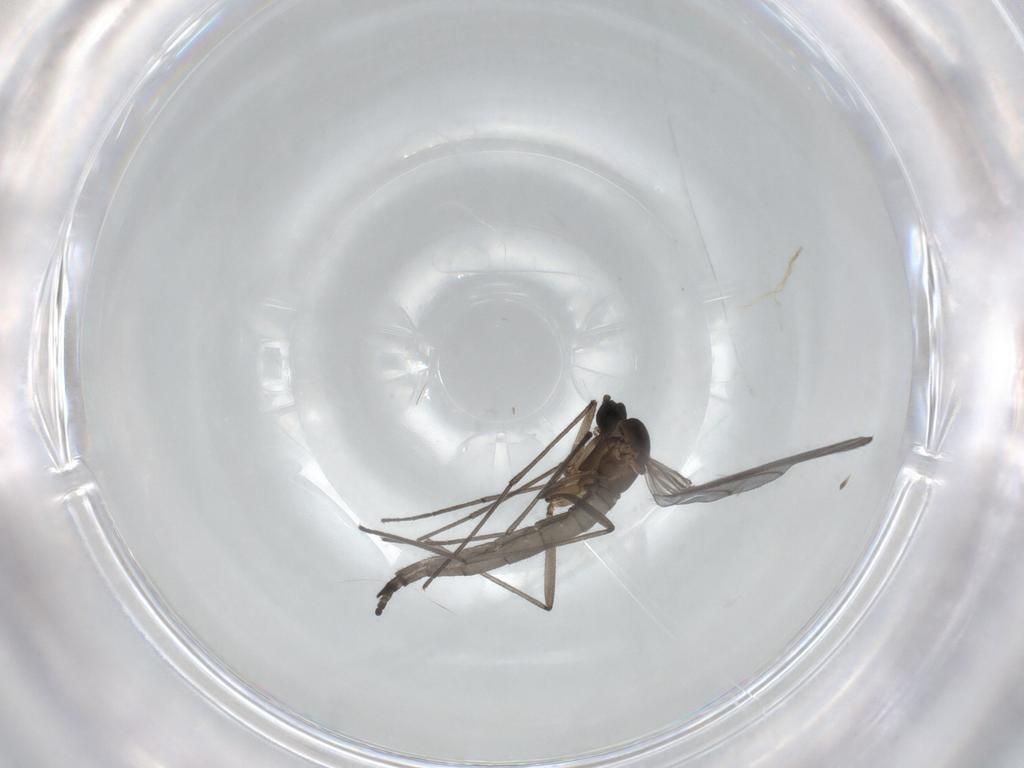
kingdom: Animalia
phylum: Arthropoda
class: Insecta
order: Diptera
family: Sciaridae
